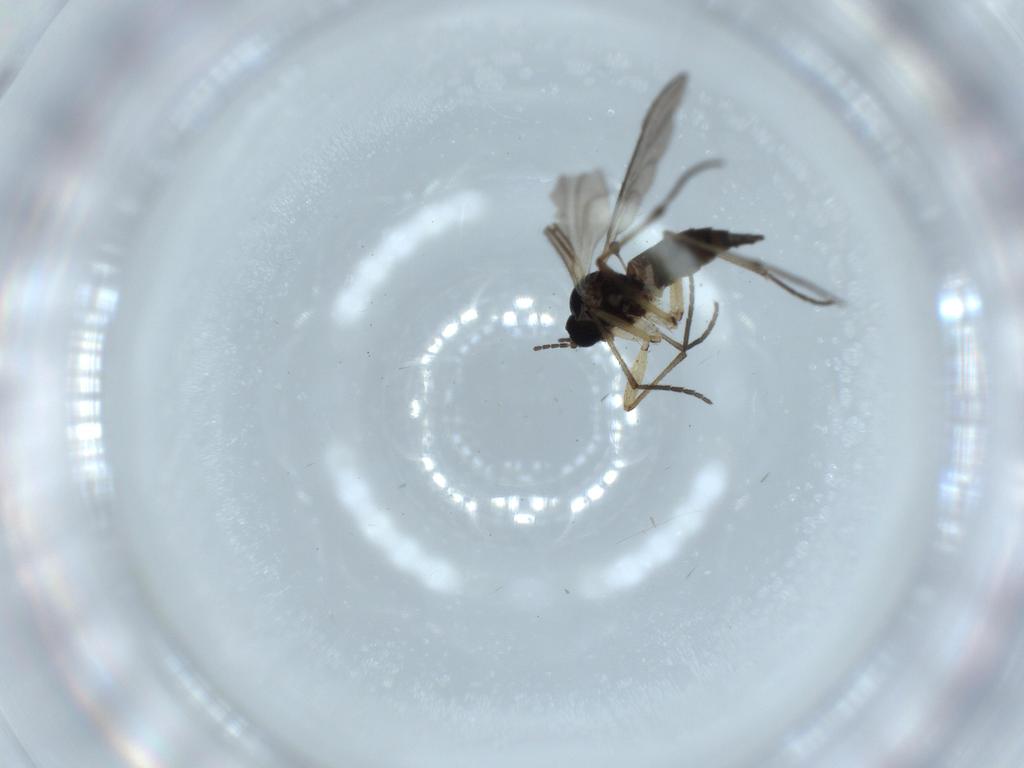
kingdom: Animalia
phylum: Arthropoda
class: Insecta
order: Diptera
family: Sciaridae
